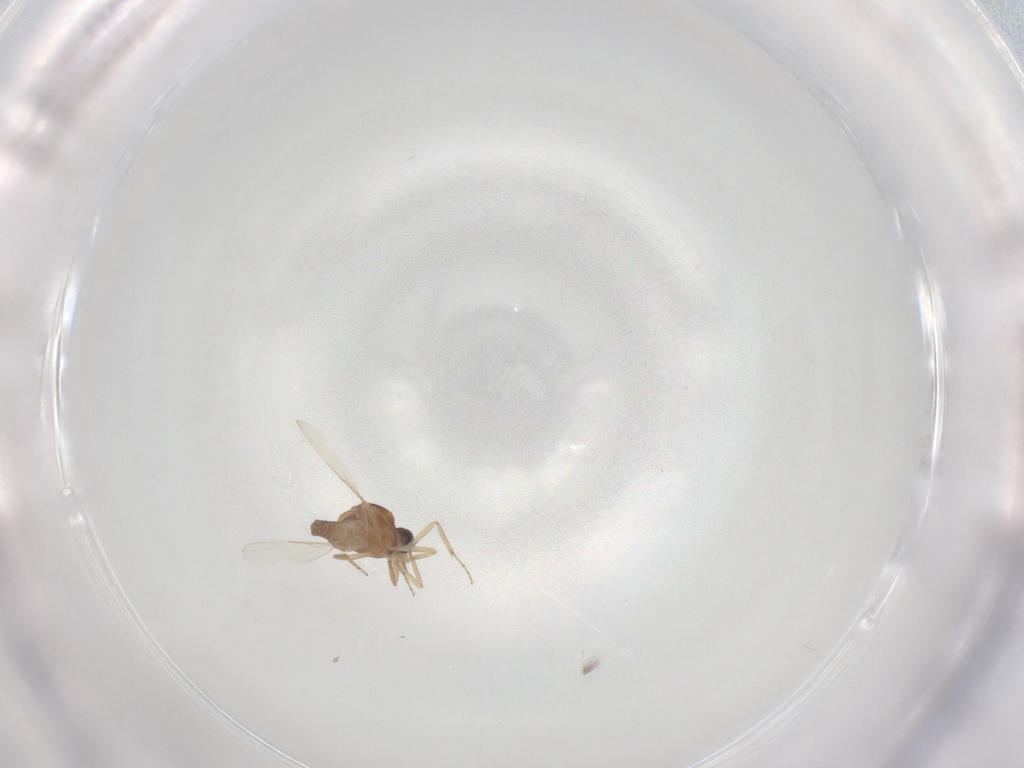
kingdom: Animalia
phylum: Arthropoda
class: Insecta
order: Diptera
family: Ceratopogonidae
